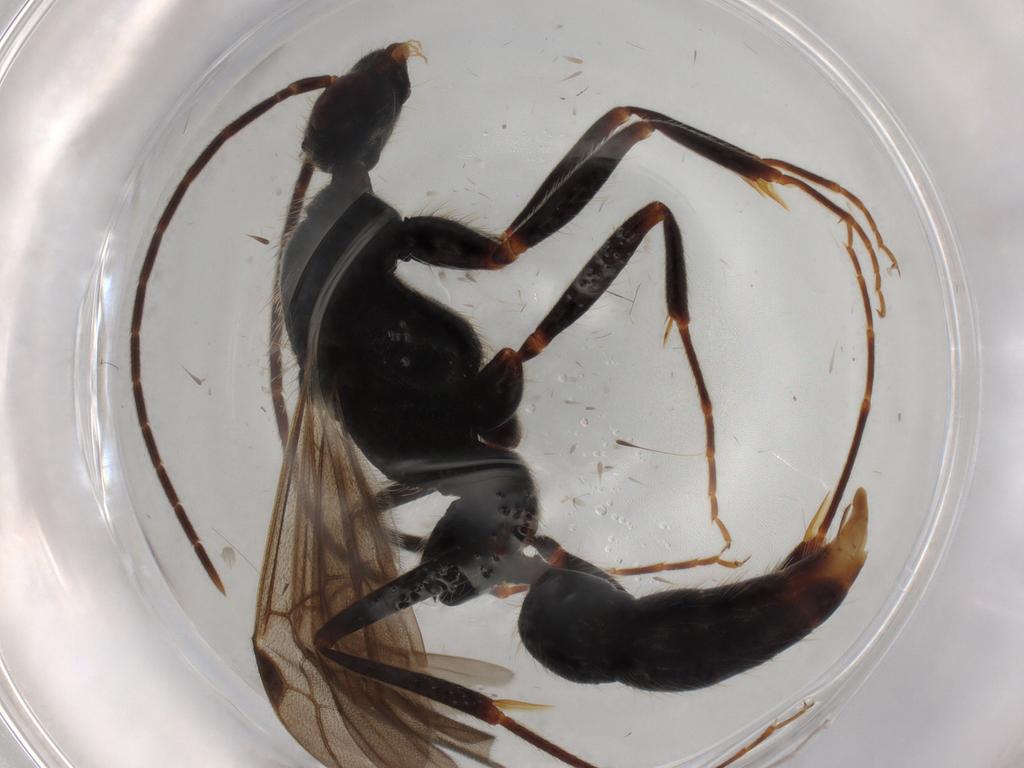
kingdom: Animalia
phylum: Arthropoda
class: Insecta
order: Hymenoptera
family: Formicidae
